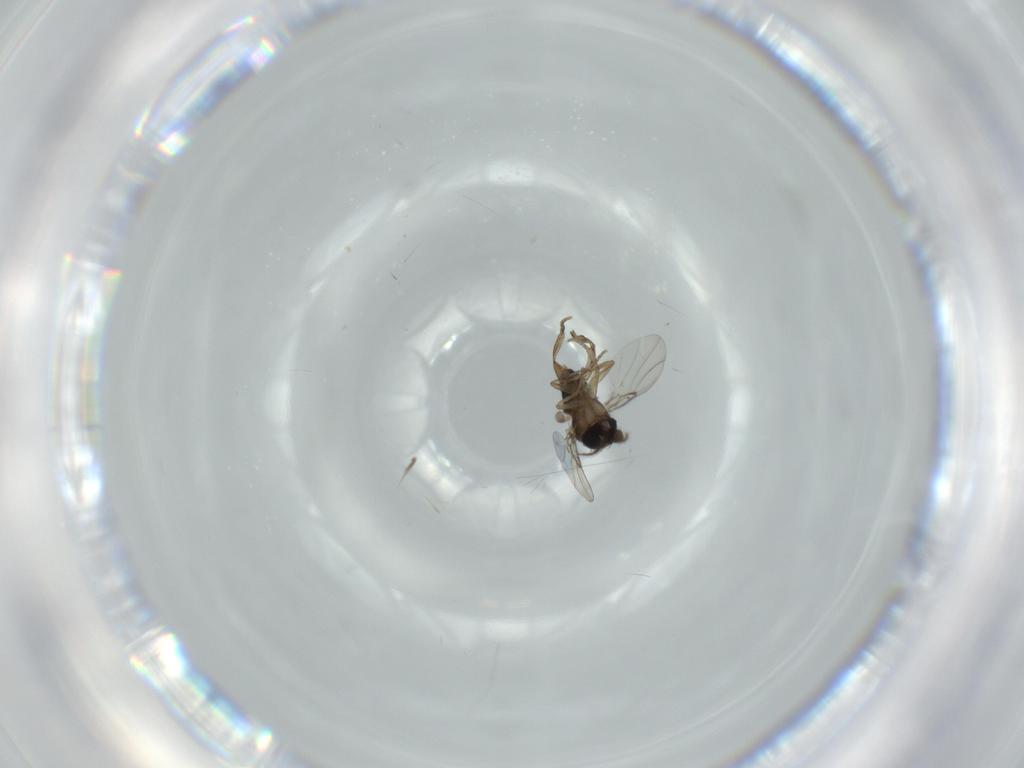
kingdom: Animalia
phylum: Arthropoda
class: Insecta
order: Diptera
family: Phoridae
